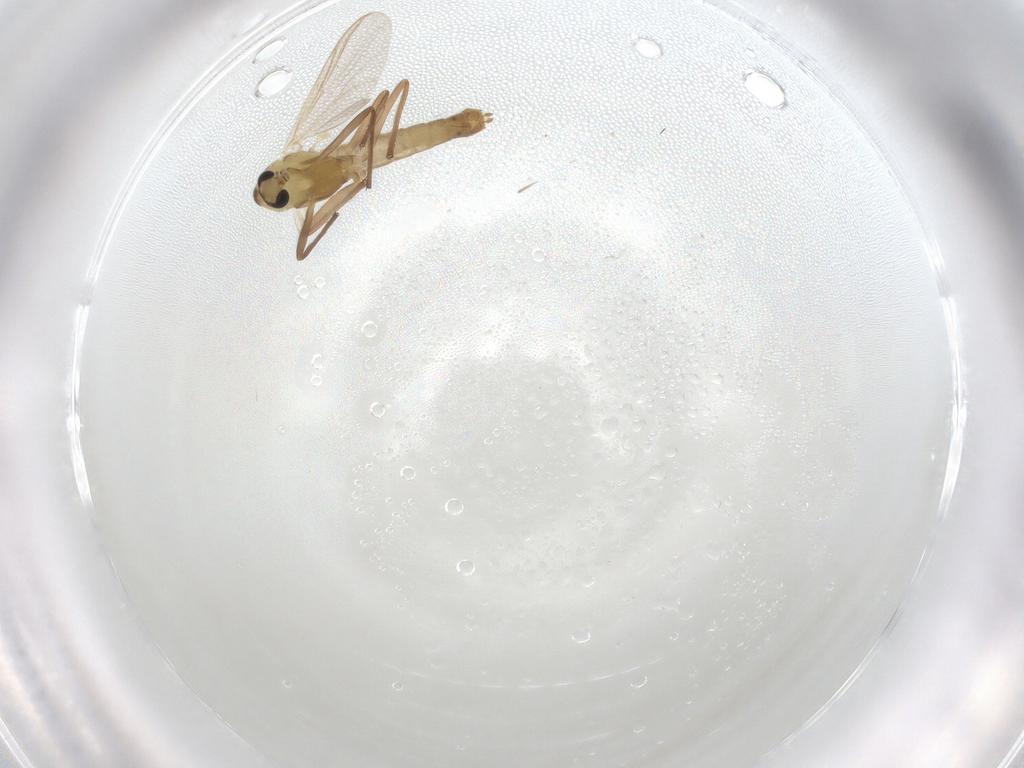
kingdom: Animalia
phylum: Arthropoda
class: Insecta
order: Diptera
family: Chironomidae
